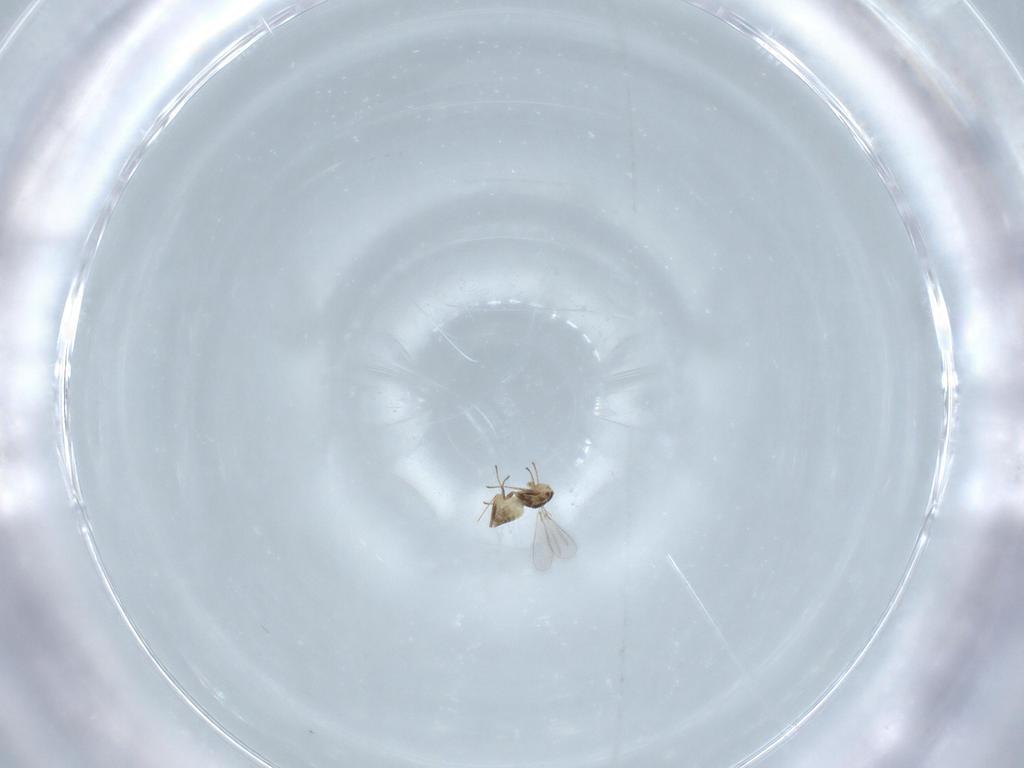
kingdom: Animalia
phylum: Arthropoda
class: Insecta
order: Hymenoptera
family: Mymaridae
